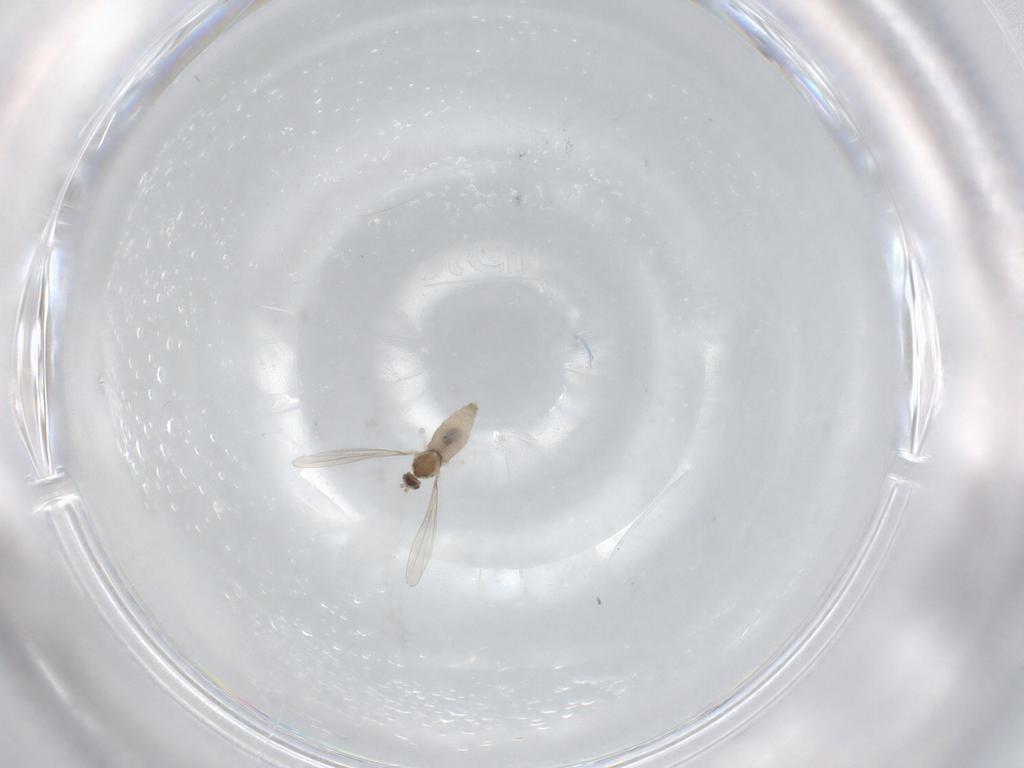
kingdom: Animalia
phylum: Arthropoda
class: Insecta
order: Diptera
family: Cecidomyiidae
